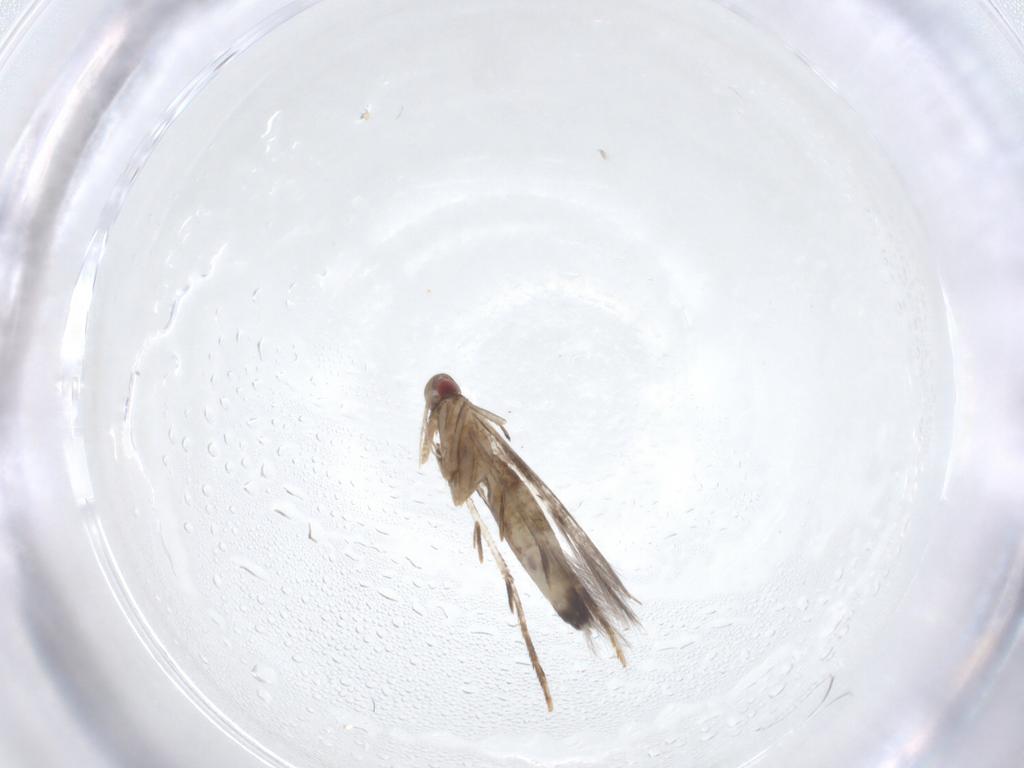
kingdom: Animalia
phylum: Arthropoda
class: Insecta
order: Lepidoptera
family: Cosmopterigidae
